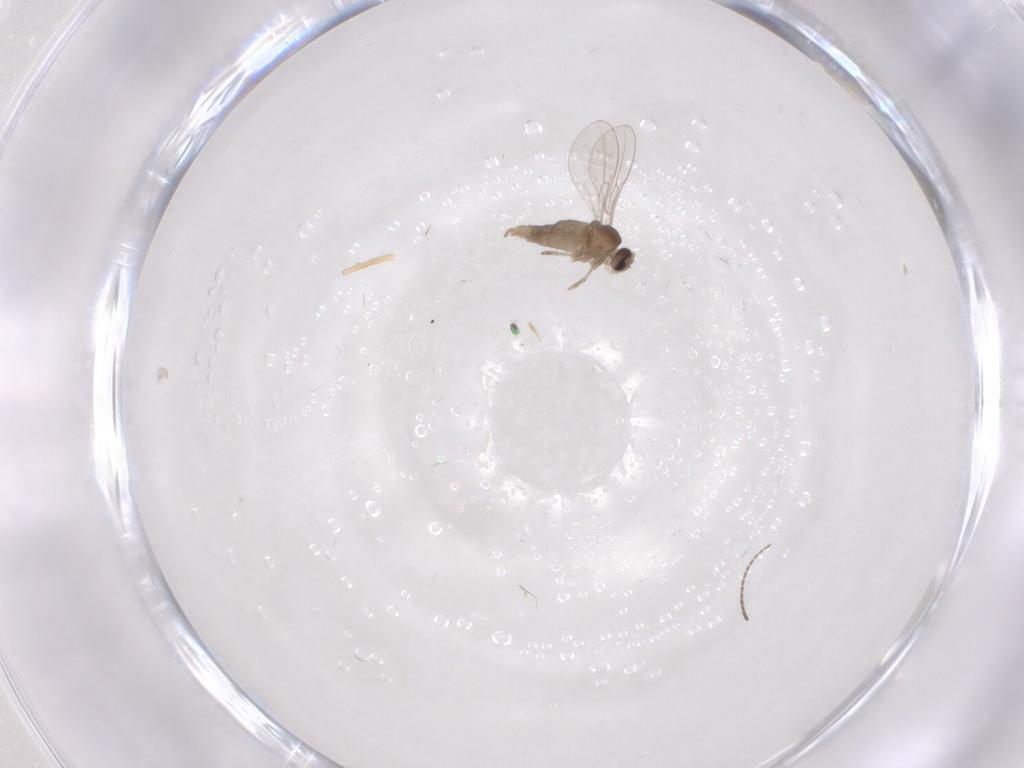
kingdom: Animalia
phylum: Arthropoda
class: Insecta
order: Diptera
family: Cecidomyiidae
